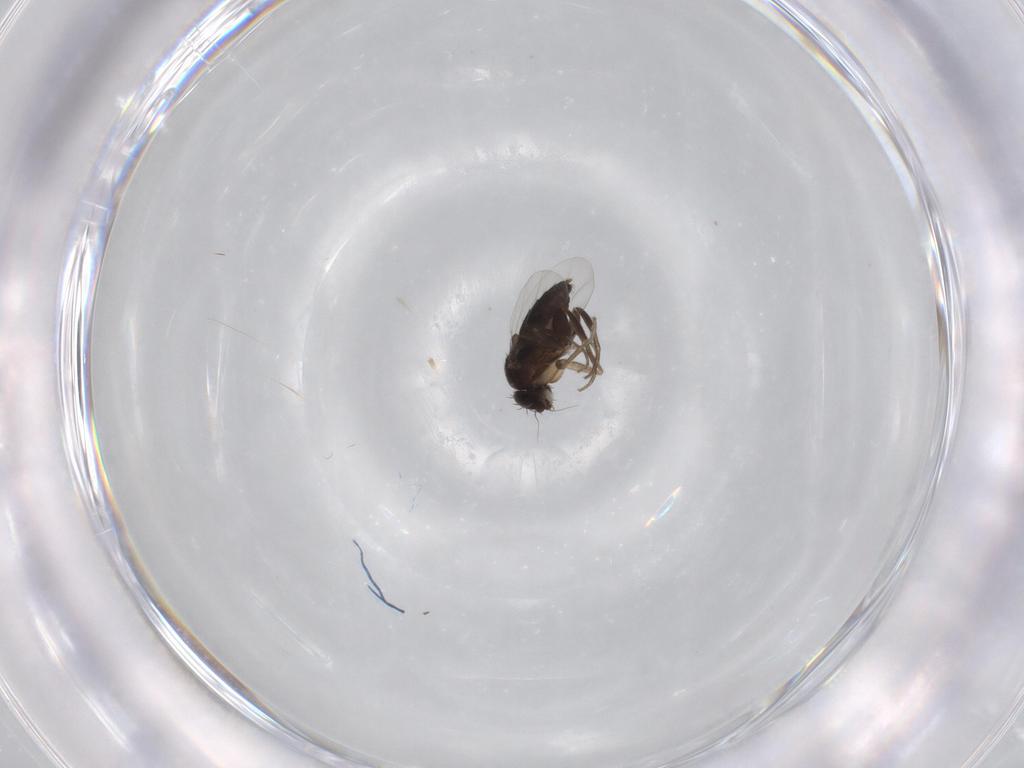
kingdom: Animalia
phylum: Arthropoda
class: Insecta
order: Diptera
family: Phoridae
